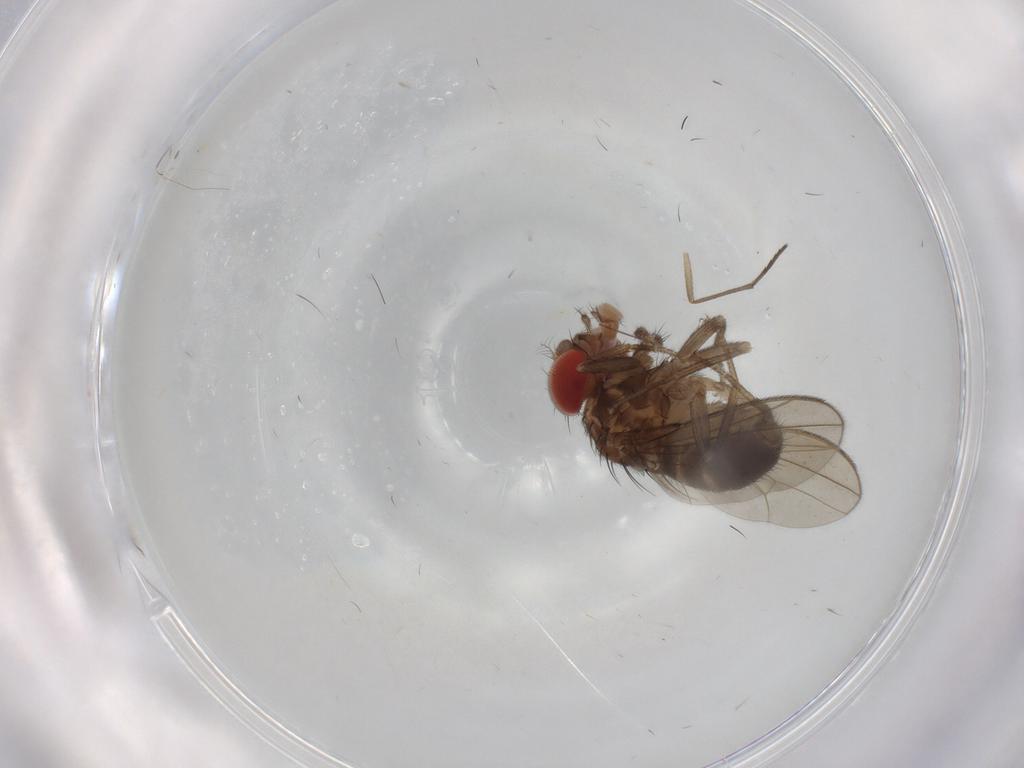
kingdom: Animalia
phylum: Arthropoda
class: Insecta
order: Diptera
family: Drosophilidae
